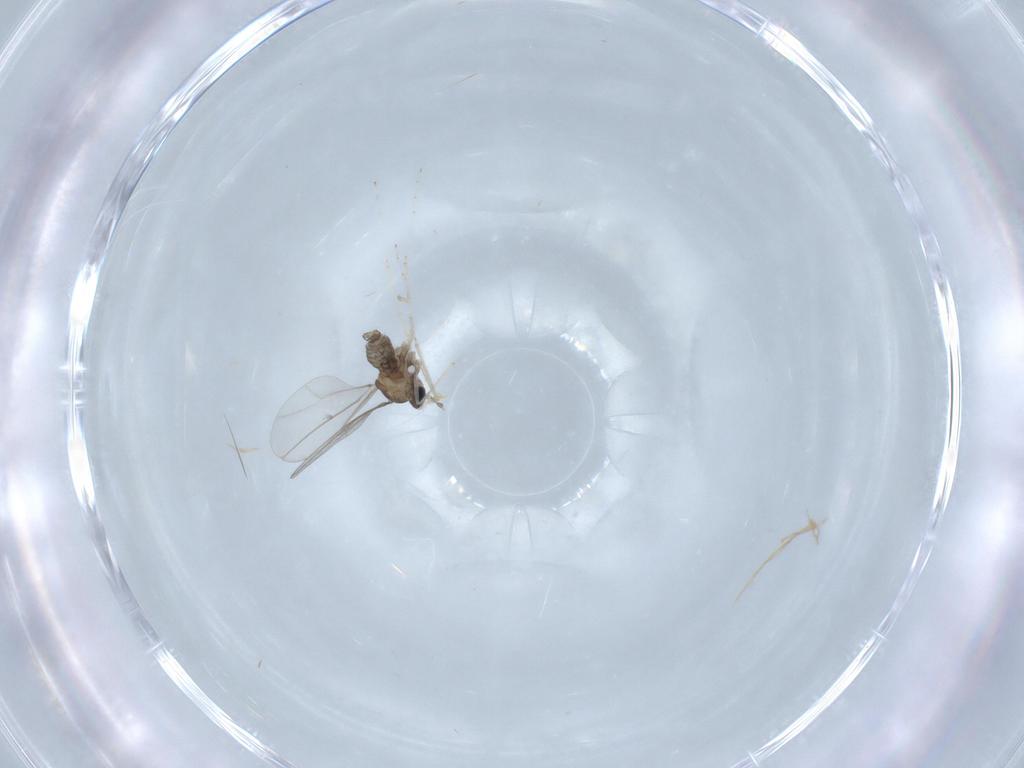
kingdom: Animalia
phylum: Arthropoda
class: Insecta
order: Diptera
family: Cecidomyiidae
